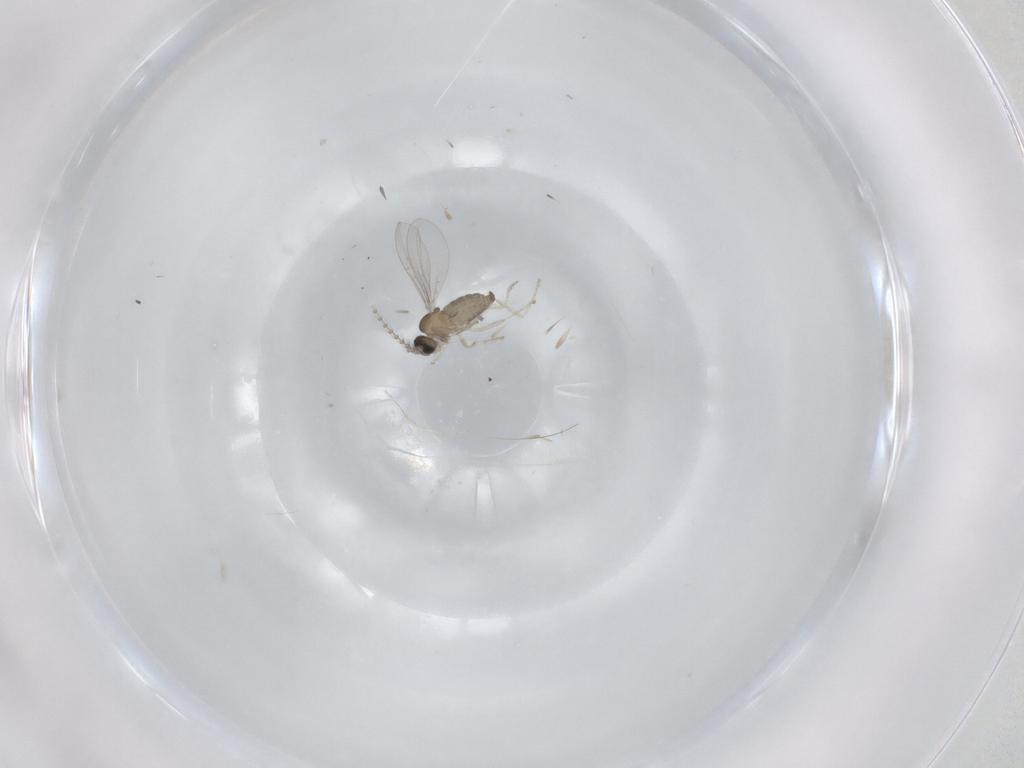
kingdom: Animalia
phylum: Arthropoda
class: Insecta
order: Diptera
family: Cecidomyiidae
